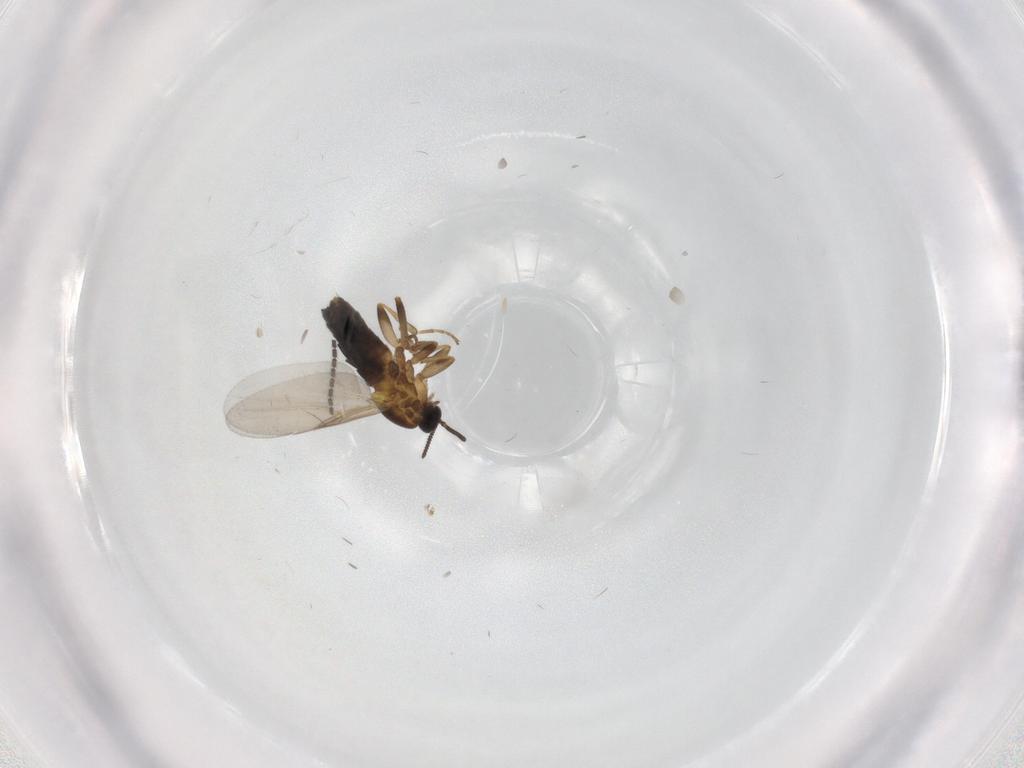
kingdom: Animalia
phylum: Arthropoda
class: Insecta
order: Diptera
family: Scatopsidae
